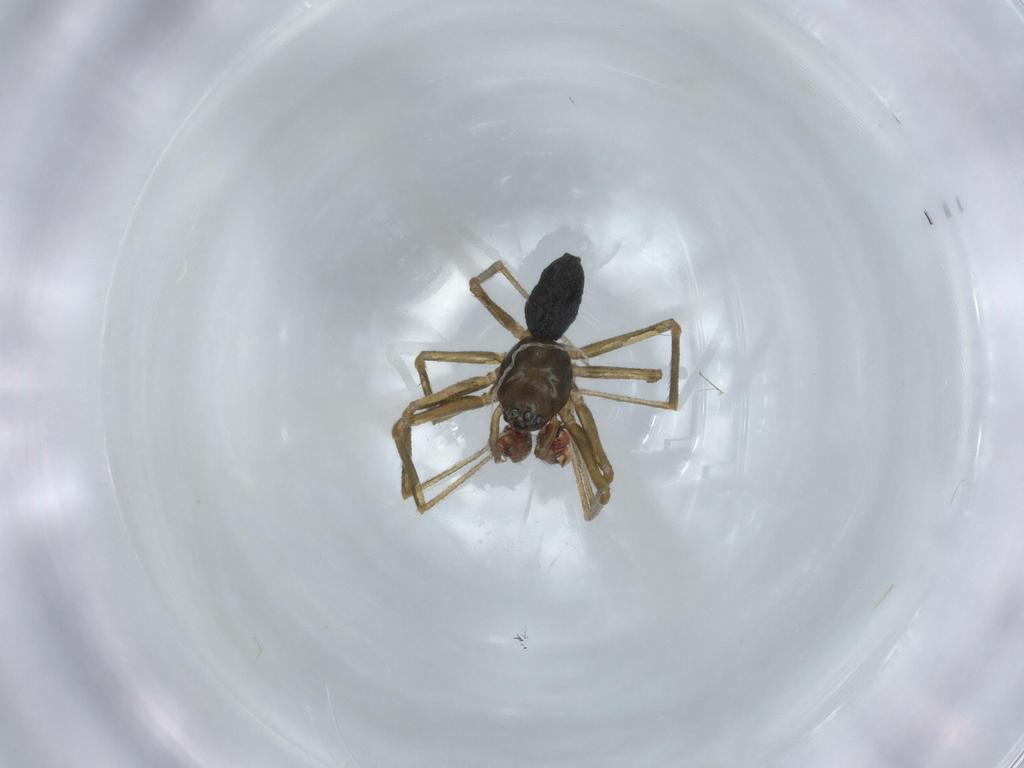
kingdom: Animalia
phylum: Arthropoda
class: Arachnida
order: Araneae
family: Linyphiidae
